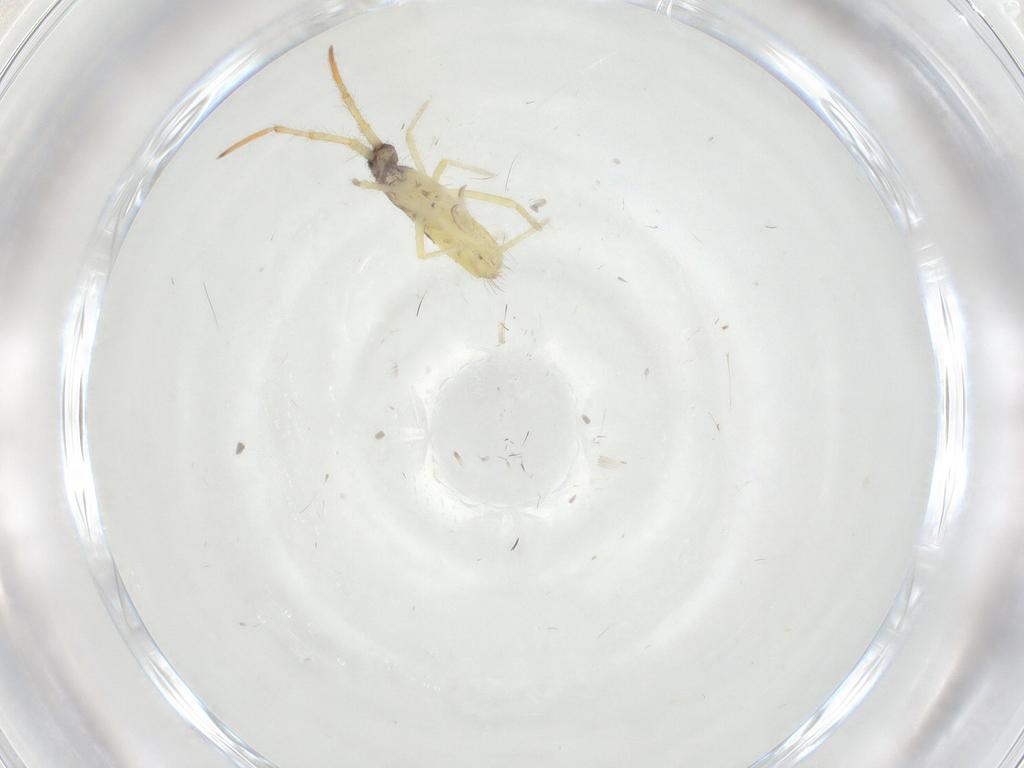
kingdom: Animalia
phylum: Arthropoda
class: Collembola
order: Entomobryomorpha
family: Entomobryidae
